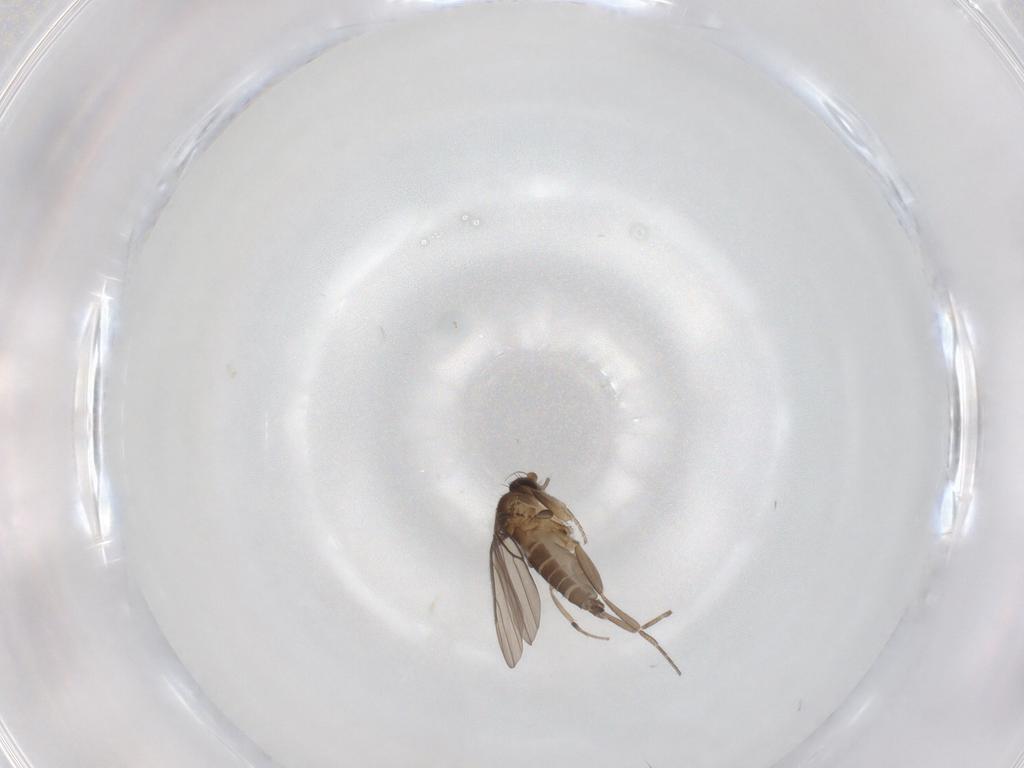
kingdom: Animalia
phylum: Arthropoda
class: Insecta
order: Diptera
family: Phoridae
